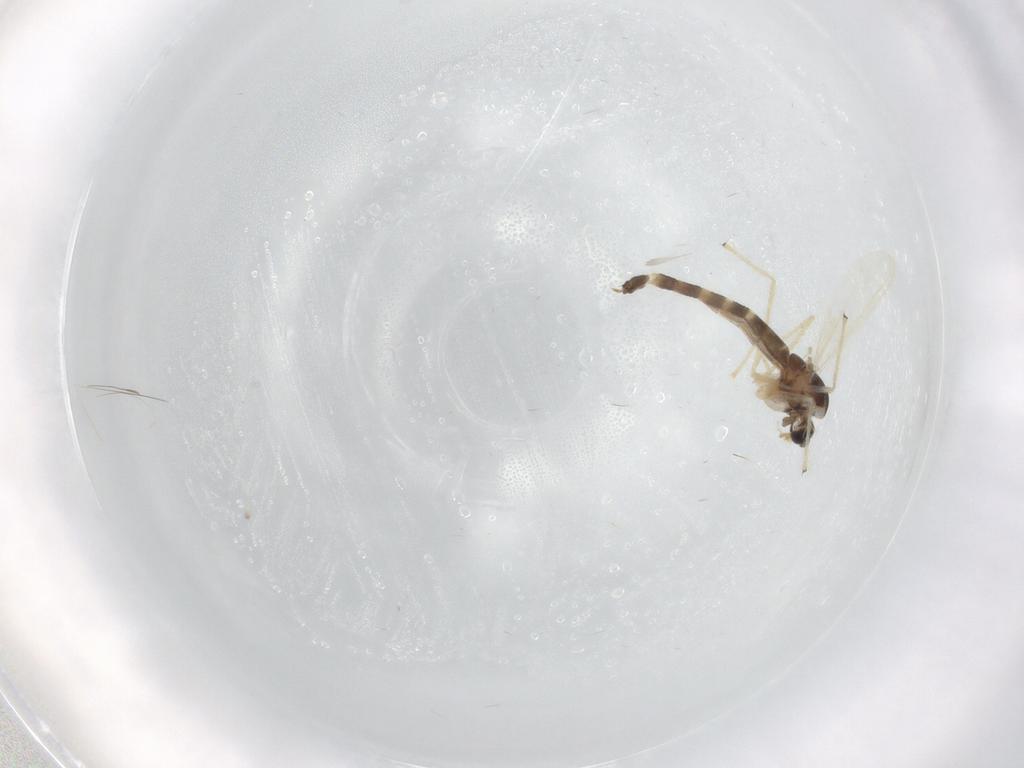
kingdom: Animalia
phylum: Arthropoda
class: Insecta
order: Diptera
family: Chironomidae
